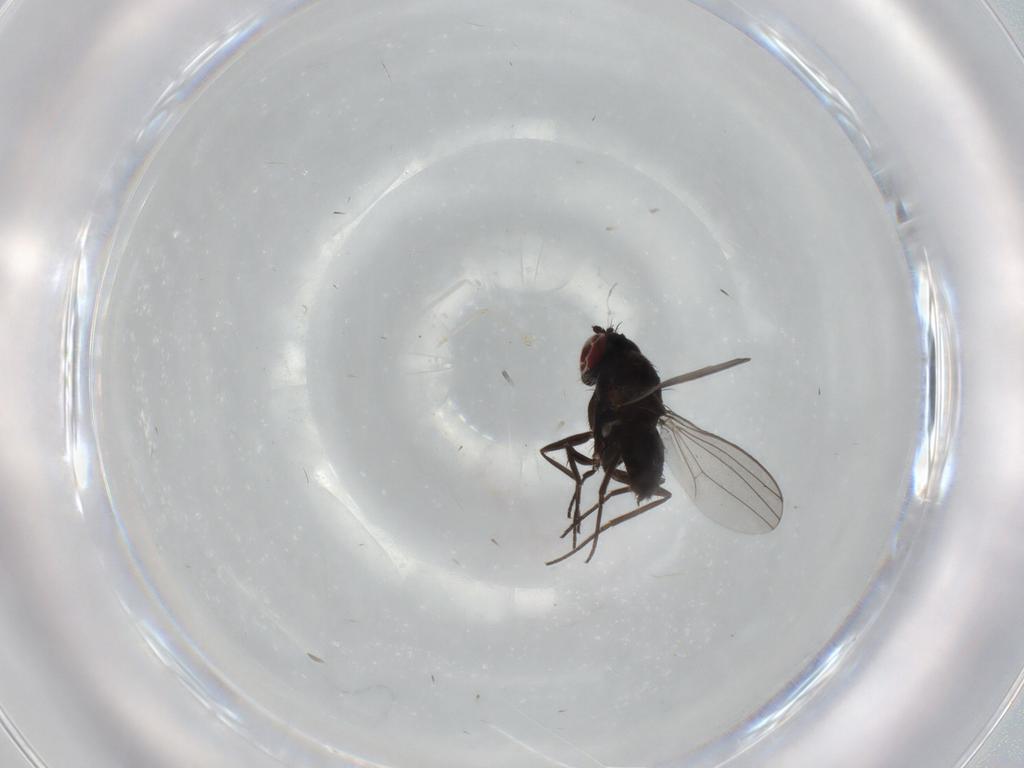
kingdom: Animalia
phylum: Arthropoda
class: Insecta
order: Diptera
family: Phoridae
